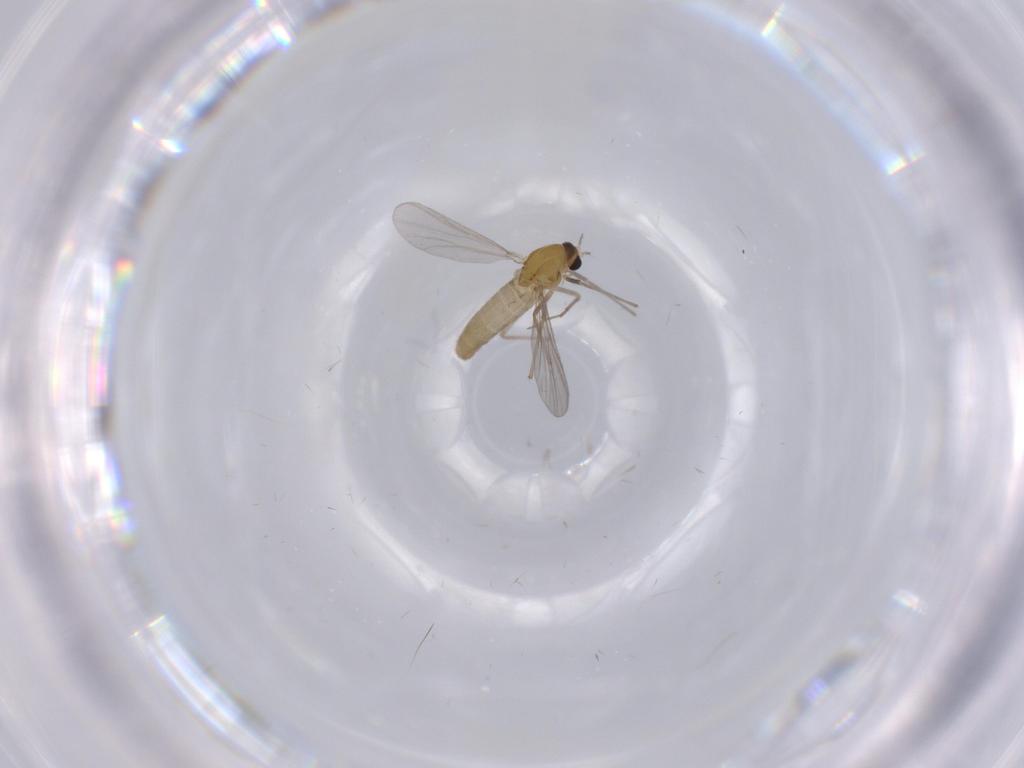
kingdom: Animalia
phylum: Arthropoda
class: Insecta
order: Diptera
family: Chironomidae
